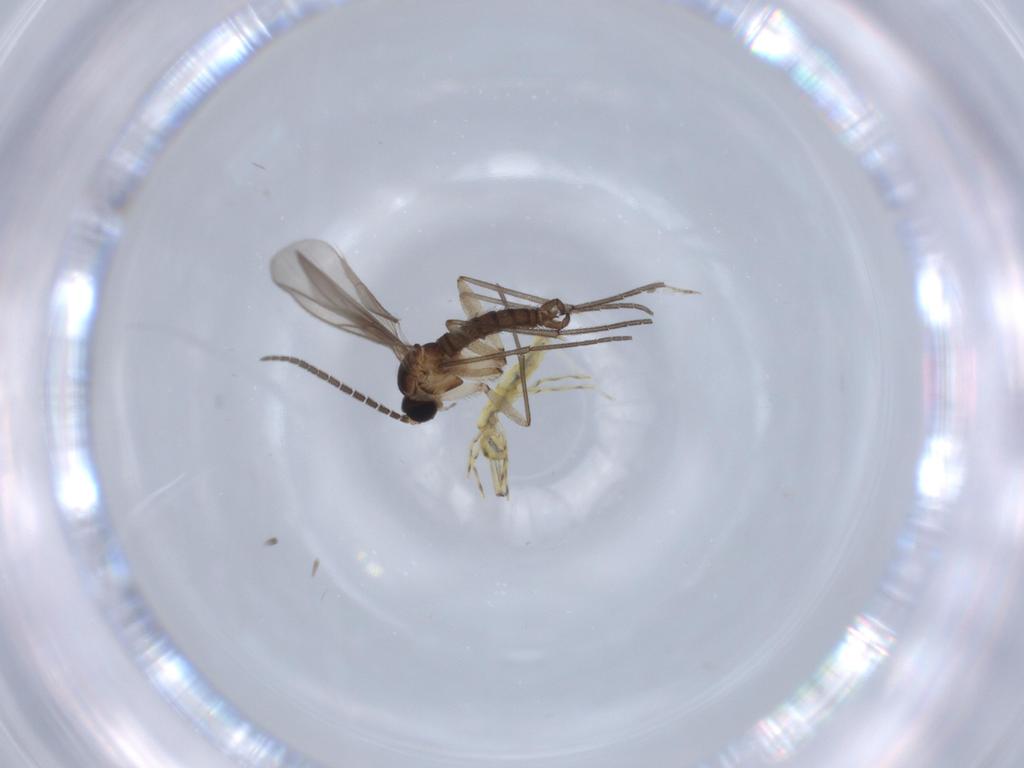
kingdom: Animalia
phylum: Arthropoda
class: Insecta
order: Diptera
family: Sciaridae
